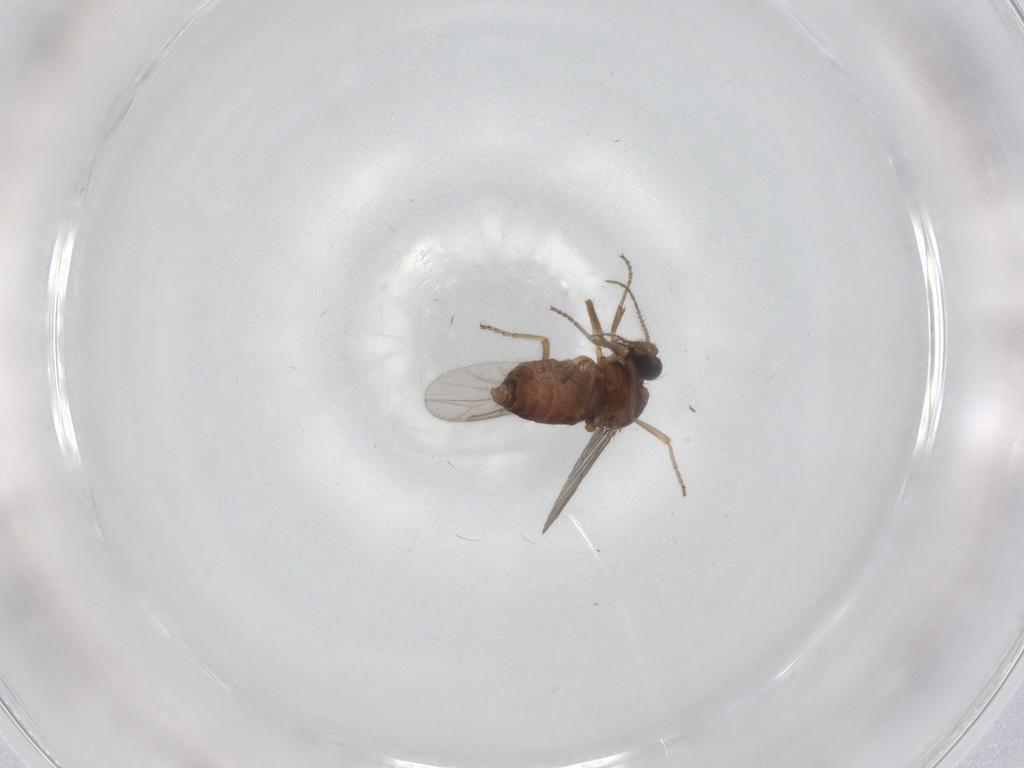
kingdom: Animalia
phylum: Arthropoda
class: Insecta
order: Diptera
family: Ceratopogonidae
